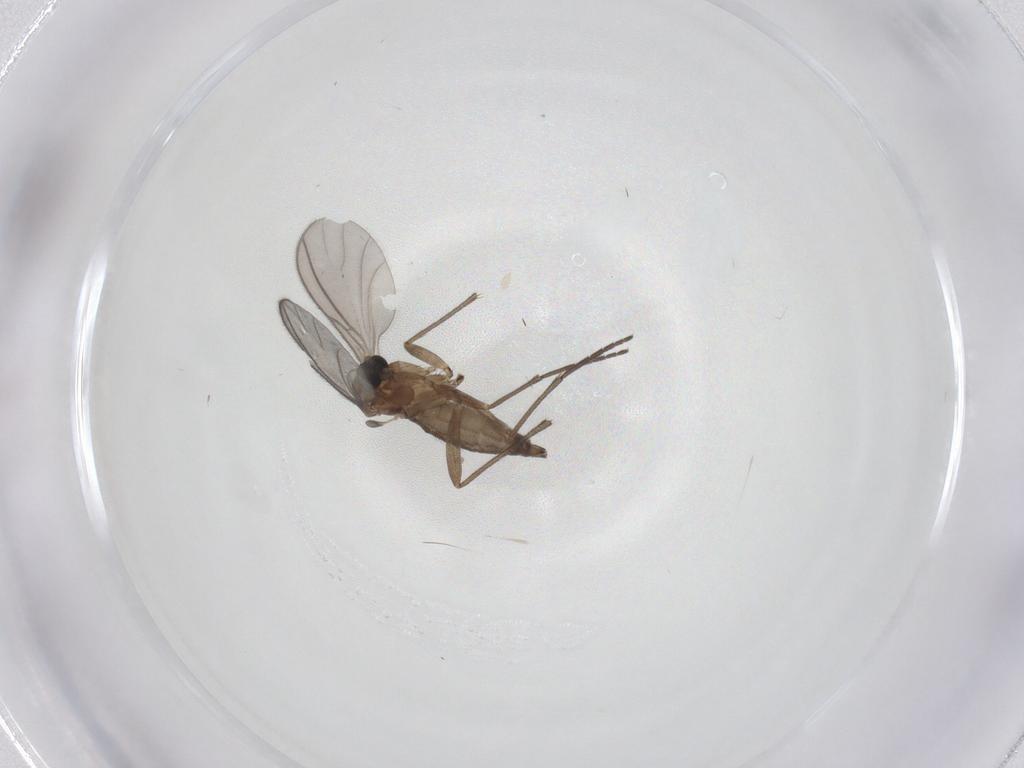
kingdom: Animalia
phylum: Arthropoda
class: Insecta
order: Diptera
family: Sciaridae
